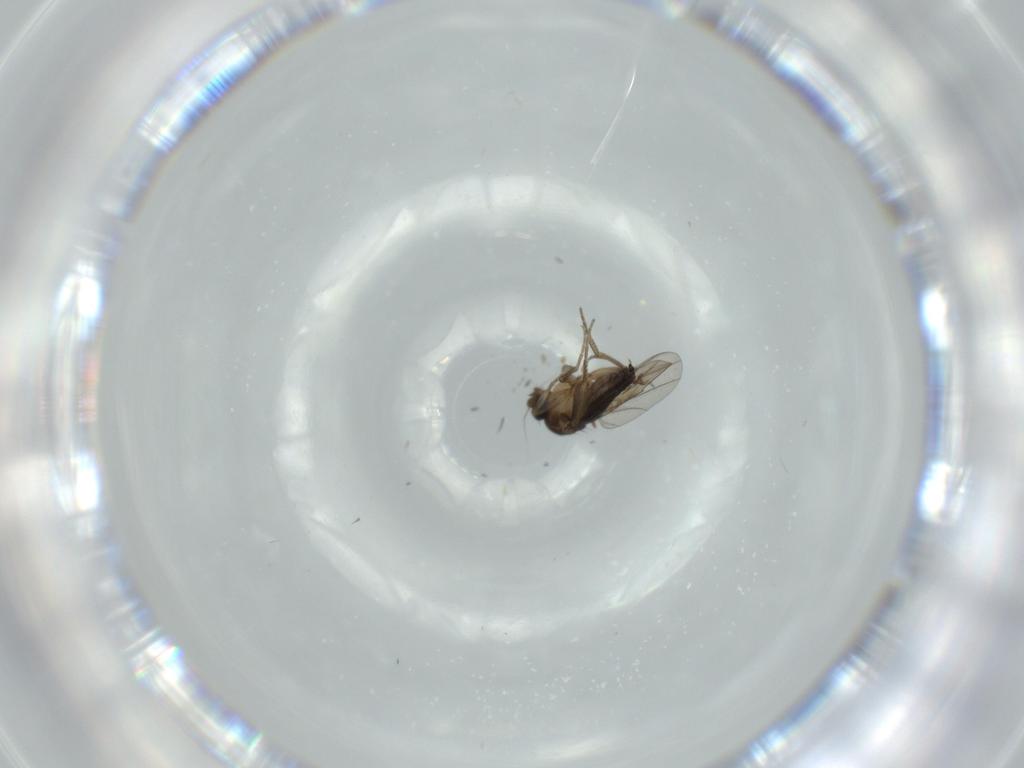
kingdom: Animalia
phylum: Arthropoda
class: Insecta
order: Diptera
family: Phoridae
